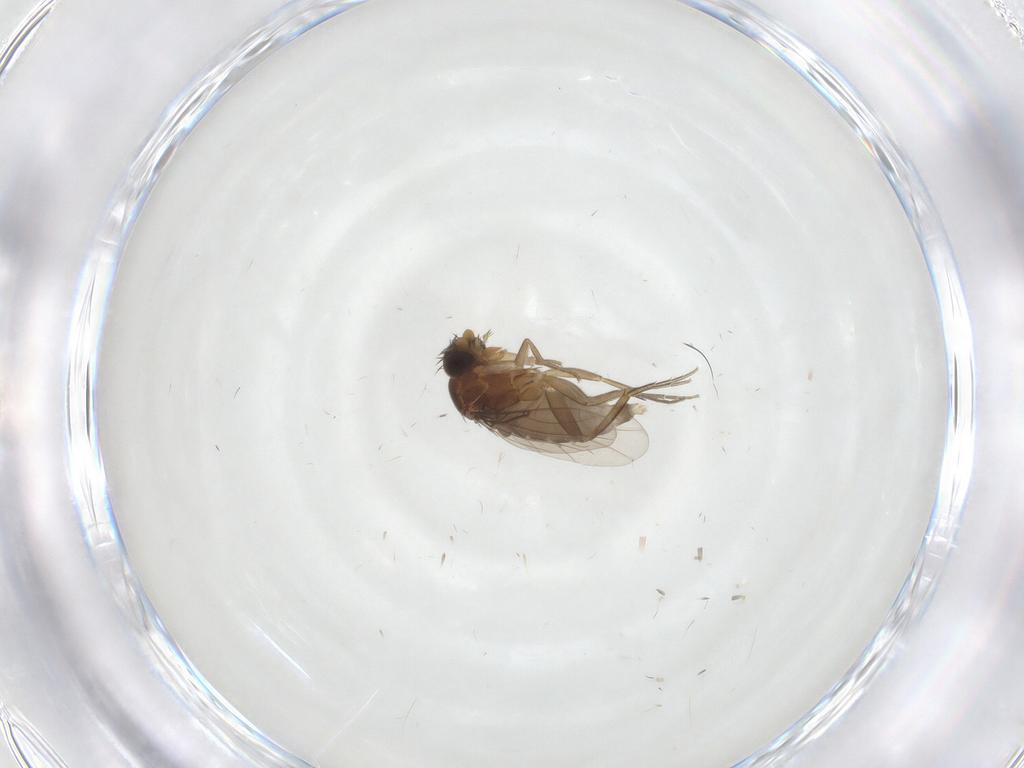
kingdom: Animalia
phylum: Arthropoda
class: Insecta
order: Diptera
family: Phoridae
